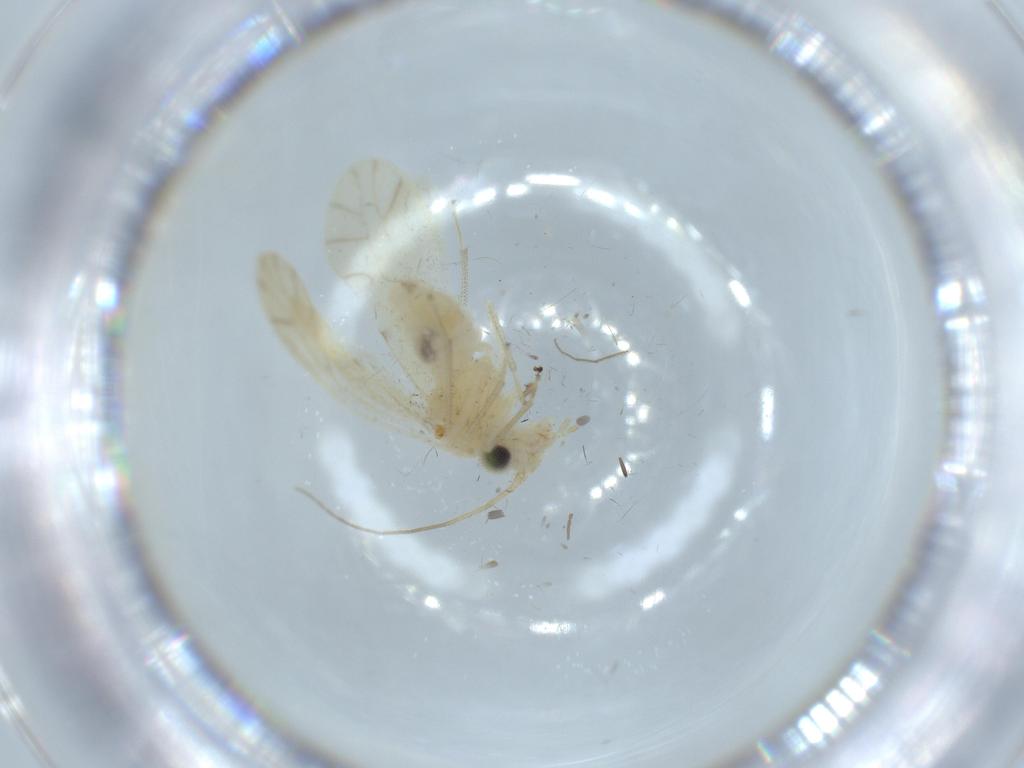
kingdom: Animalia
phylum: Arthropoda
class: Insecta
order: Psocodea
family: Caeciliusidae
